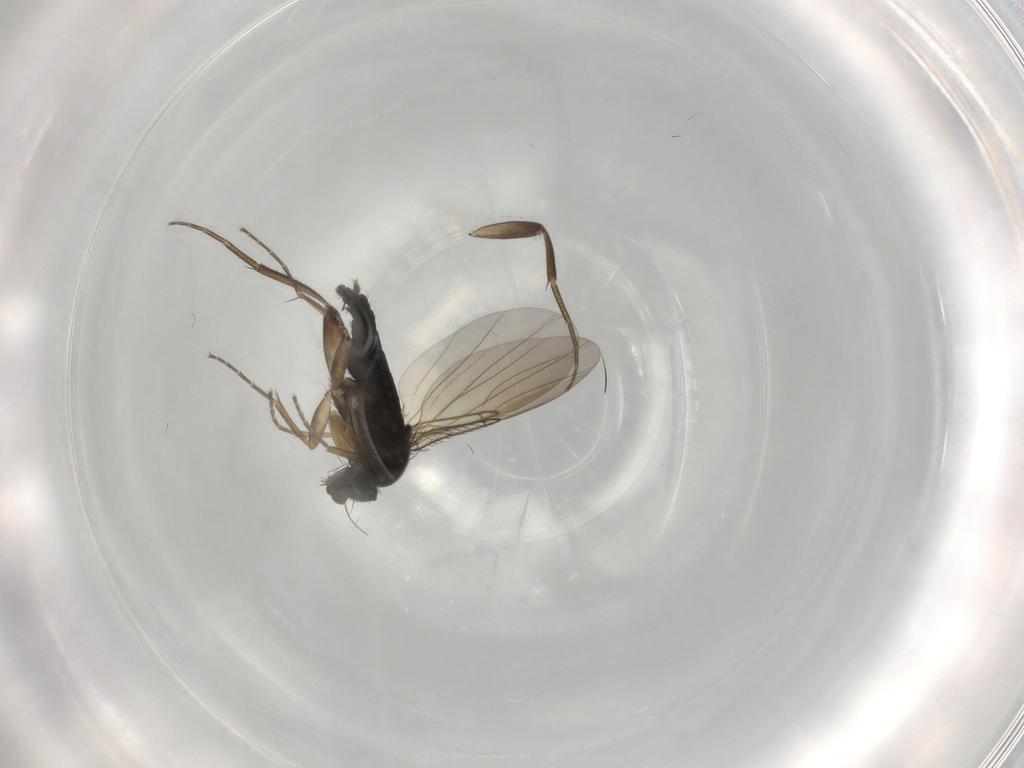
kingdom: Animalia
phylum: Arthropoda
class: Insecta
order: Diptera
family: Phoridae
